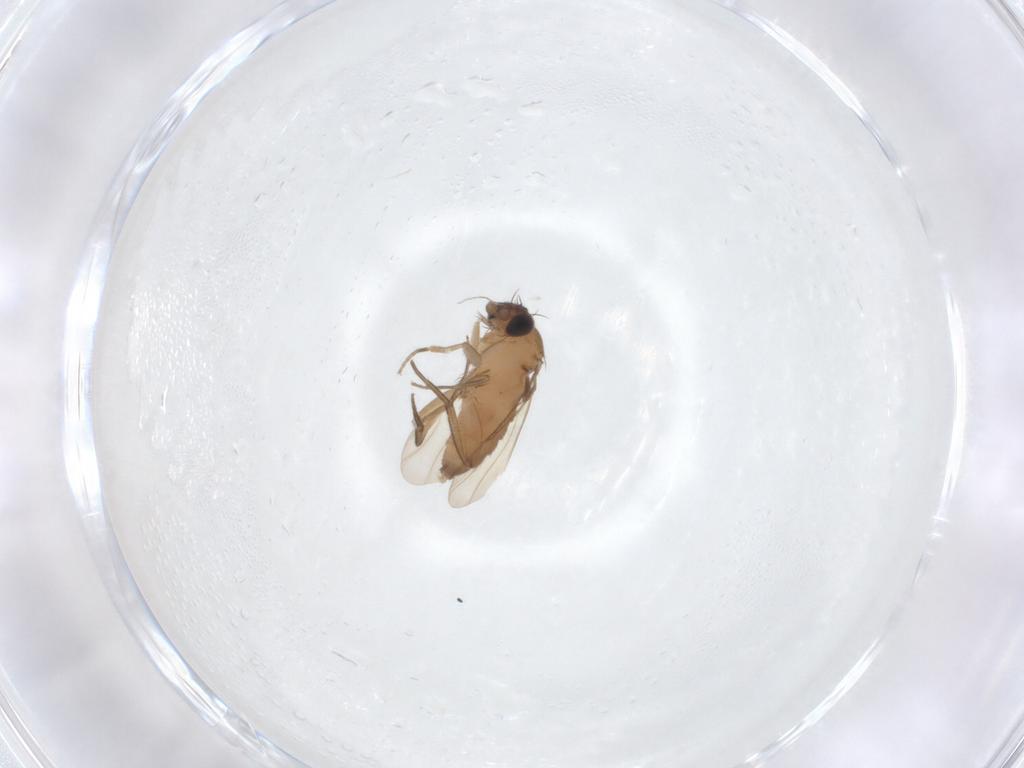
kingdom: Animalia
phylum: Arthropoda
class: Insecta
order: Diptera
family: Phoridae
